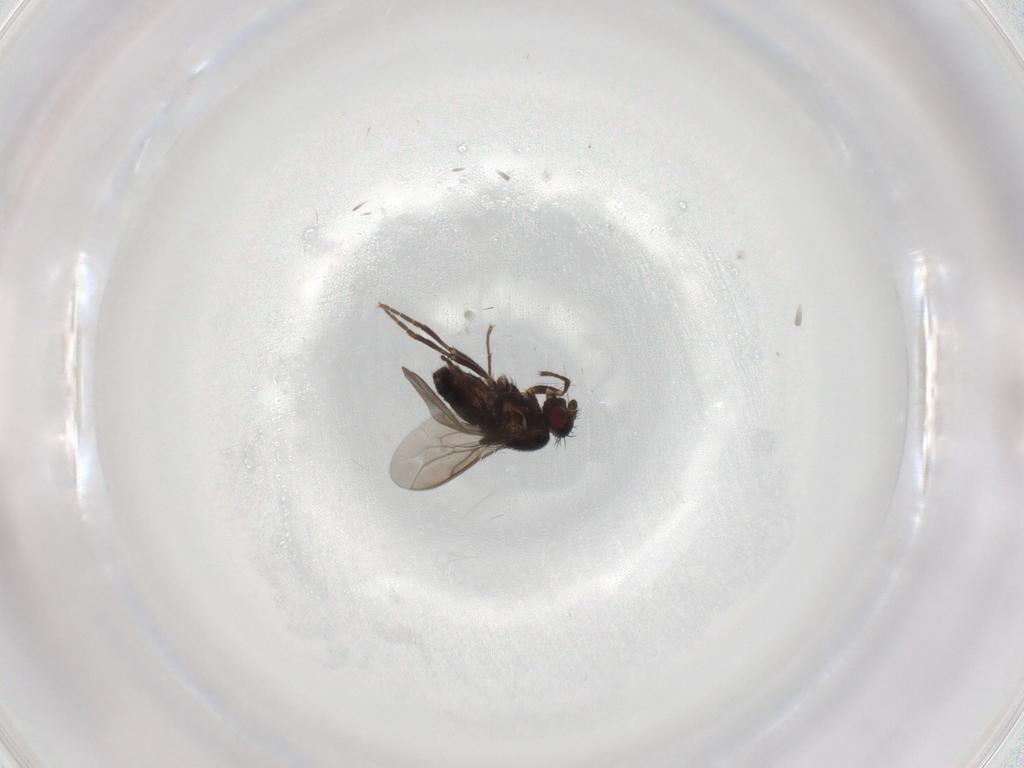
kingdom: Animalia
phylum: Arthropoda
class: Insecta
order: Diptera
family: Sphaeroceridae
